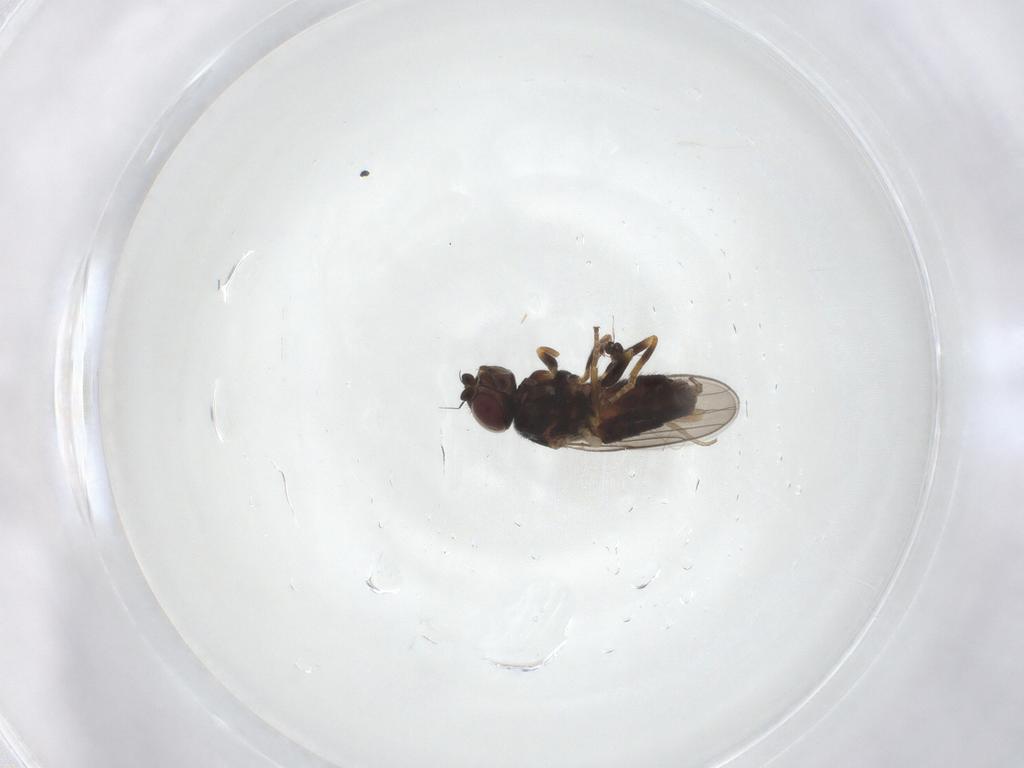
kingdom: Animalia
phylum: Arthropoda
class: Insecta
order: Diptera
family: Chloropidae
